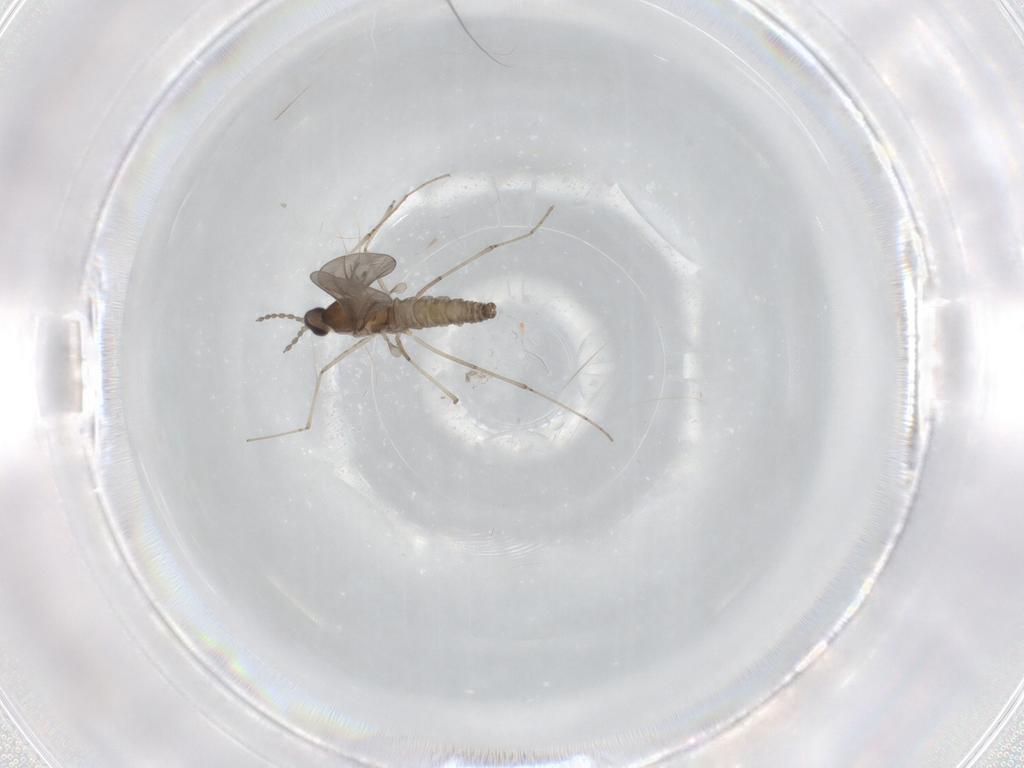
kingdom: Animalia
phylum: Arthropoda
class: Insecta
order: Diptera
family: Cecidomyiidae
